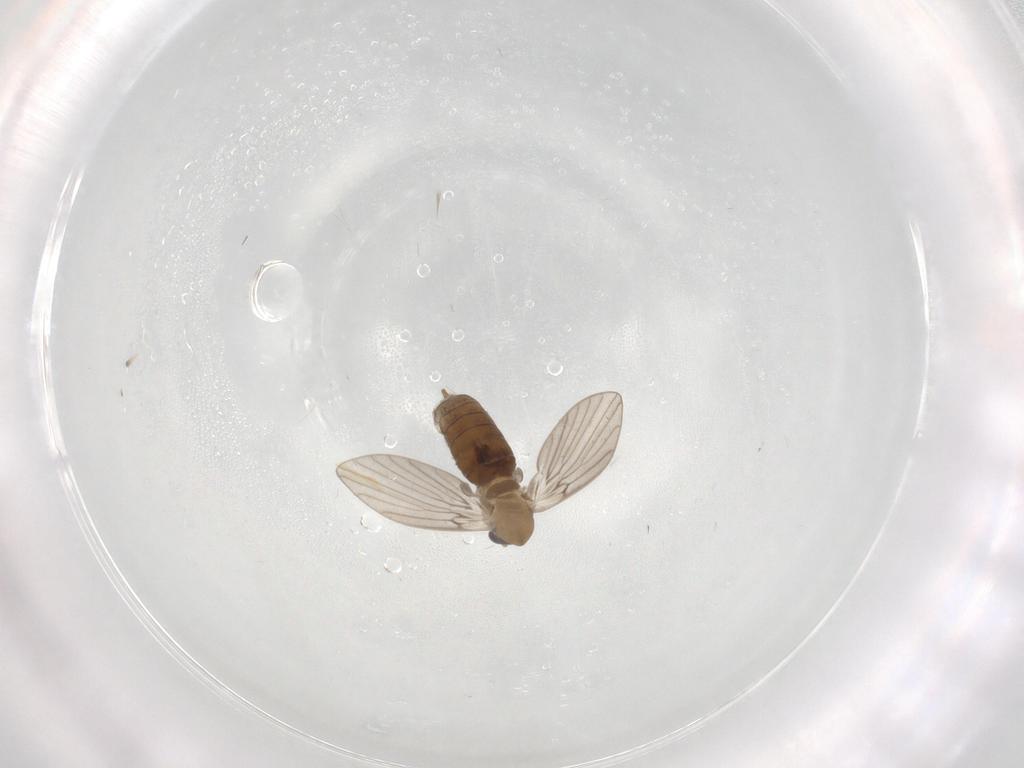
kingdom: Animalia
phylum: Arthropoda
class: Insecta
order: Diptera
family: Psychodidae
